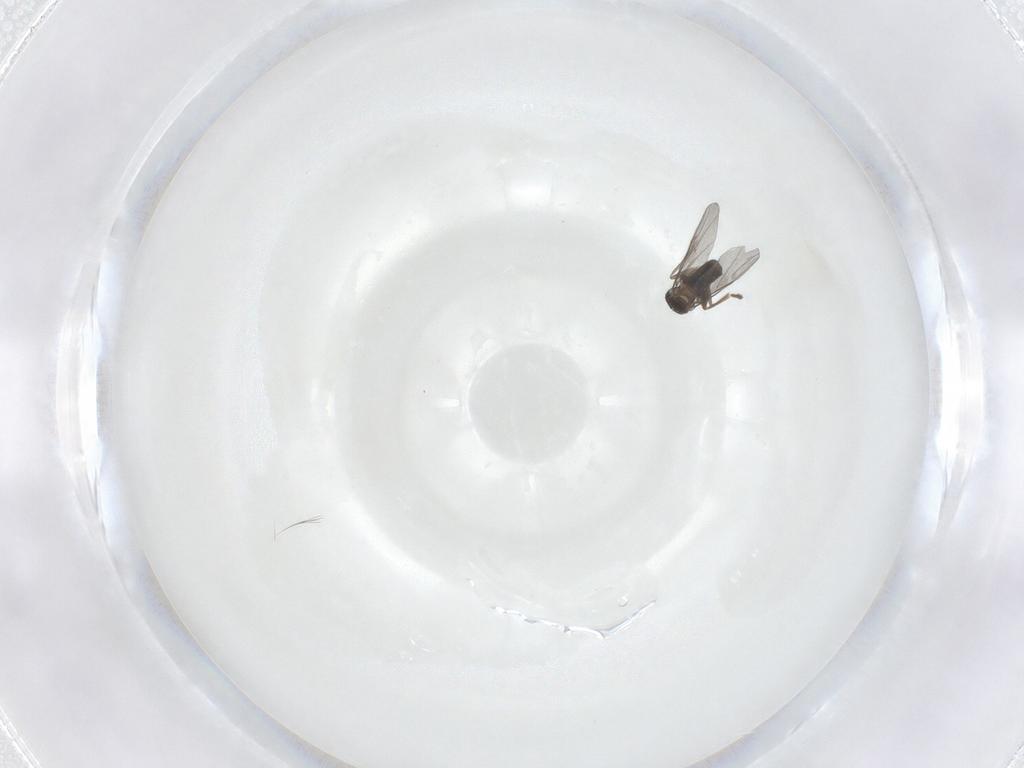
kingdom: Animalia
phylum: Arthropoda
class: Insecta
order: Diptera
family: Phoridae
